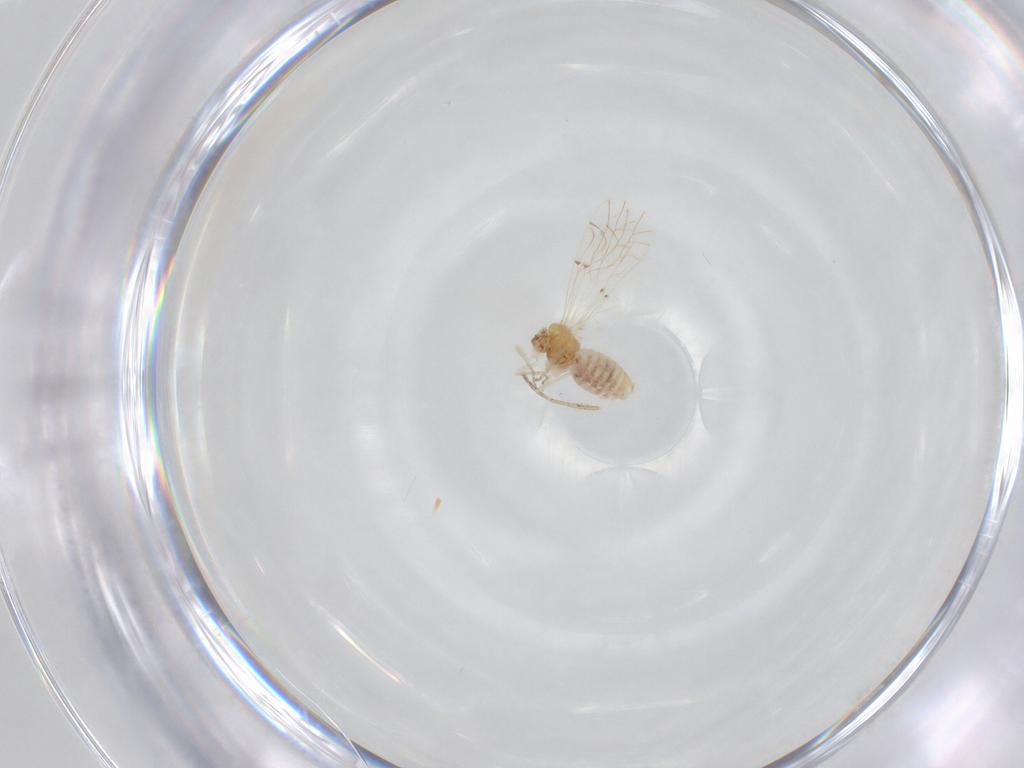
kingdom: Animalia
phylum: Arthropoda
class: Insecta
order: Psocodea
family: Lachesillidae
